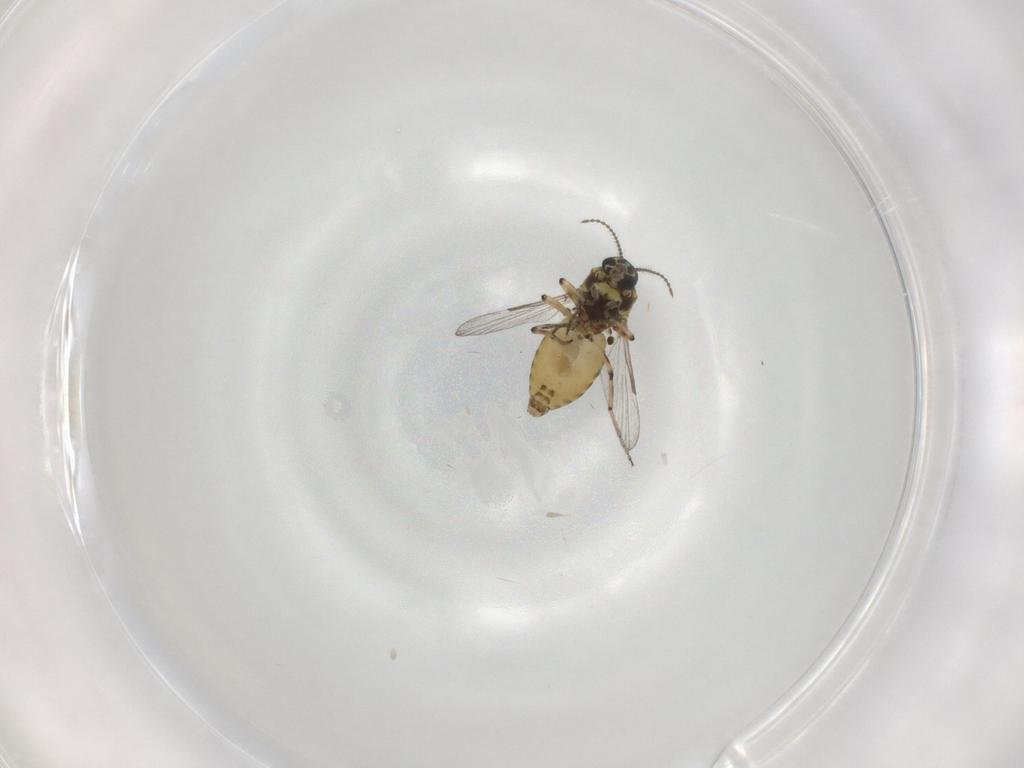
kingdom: Animalia
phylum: Arthropoda
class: Insecta
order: Diptera
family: Ceratopogonidae
